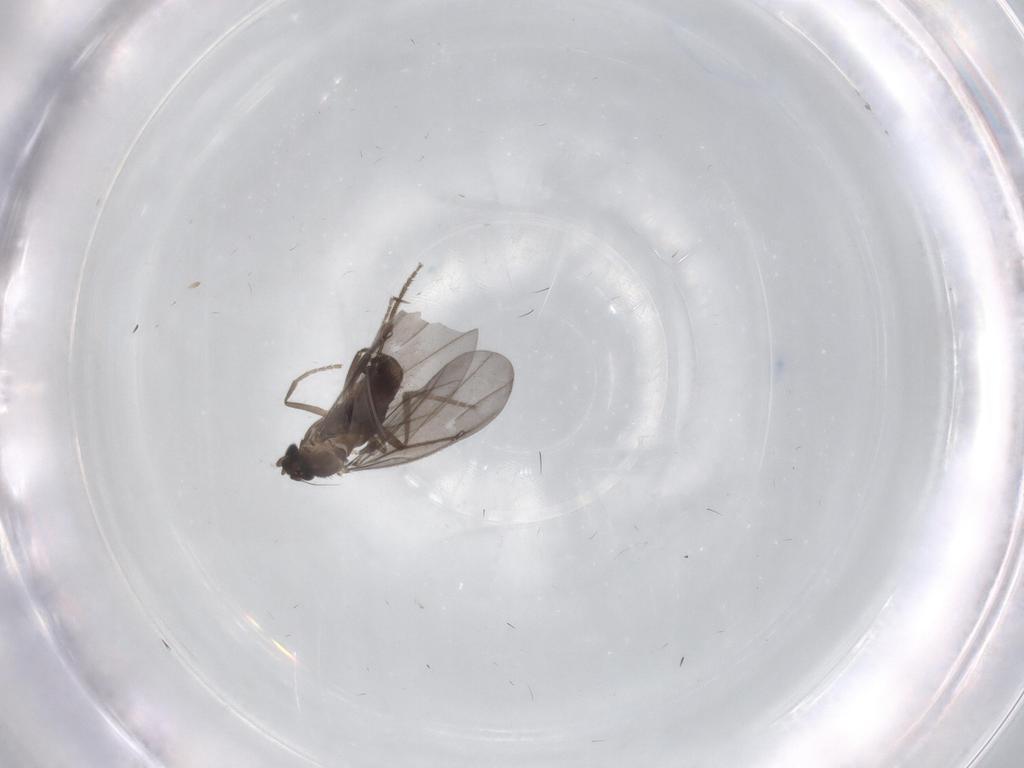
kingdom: Animalia
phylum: Arthropoda
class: Insecta
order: Diptera
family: Phoridae
